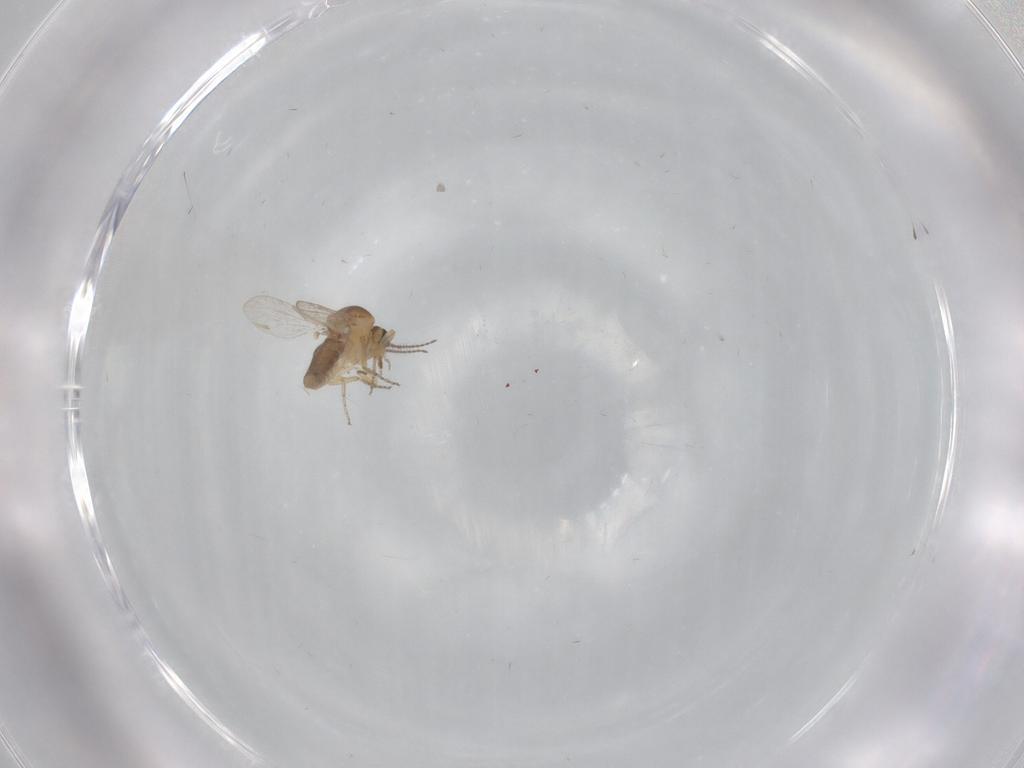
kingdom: Animalia
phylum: Arthropoda
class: Insecta
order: Diptera
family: Ceratopogonidae
